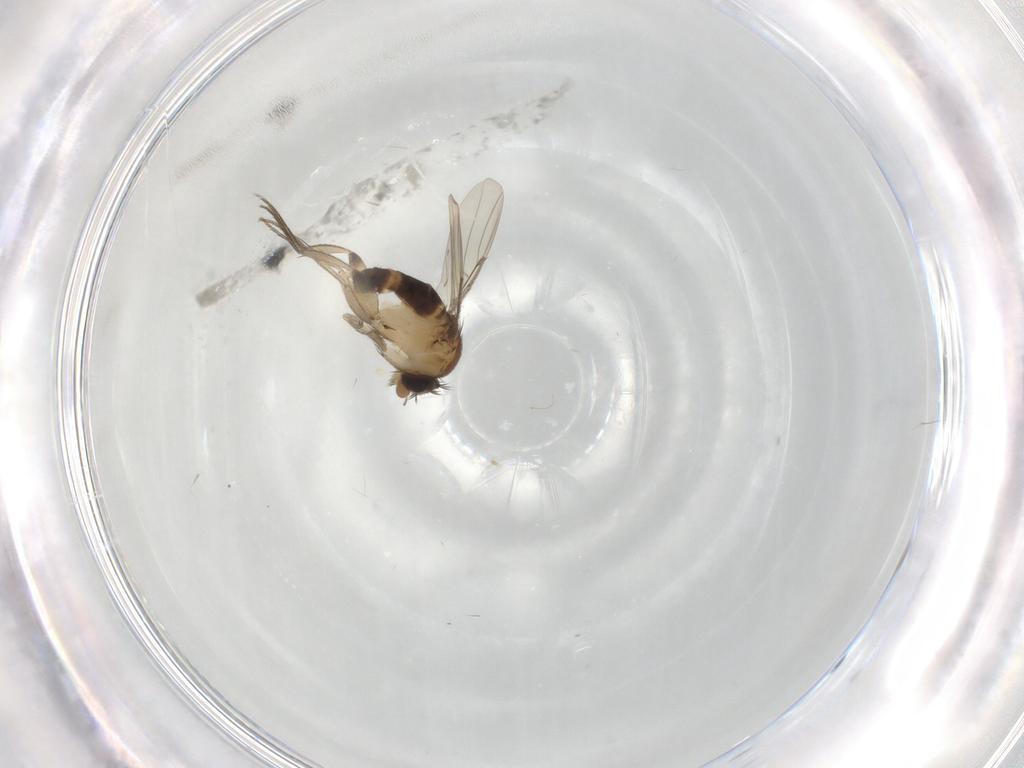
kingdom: Animalia
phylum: Arthropoda
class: Insecta
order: Diptera
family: Phoridae
